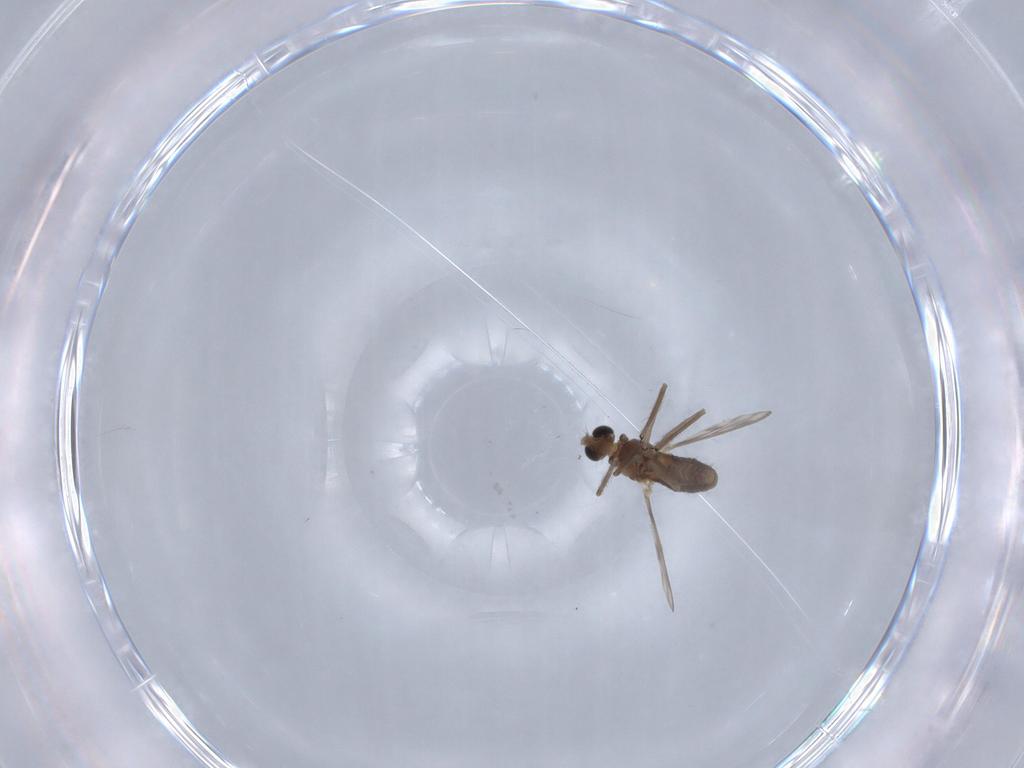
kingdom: Animalia
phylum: Arthropoda
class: Insecta
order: Diptera
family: Chironomidae
